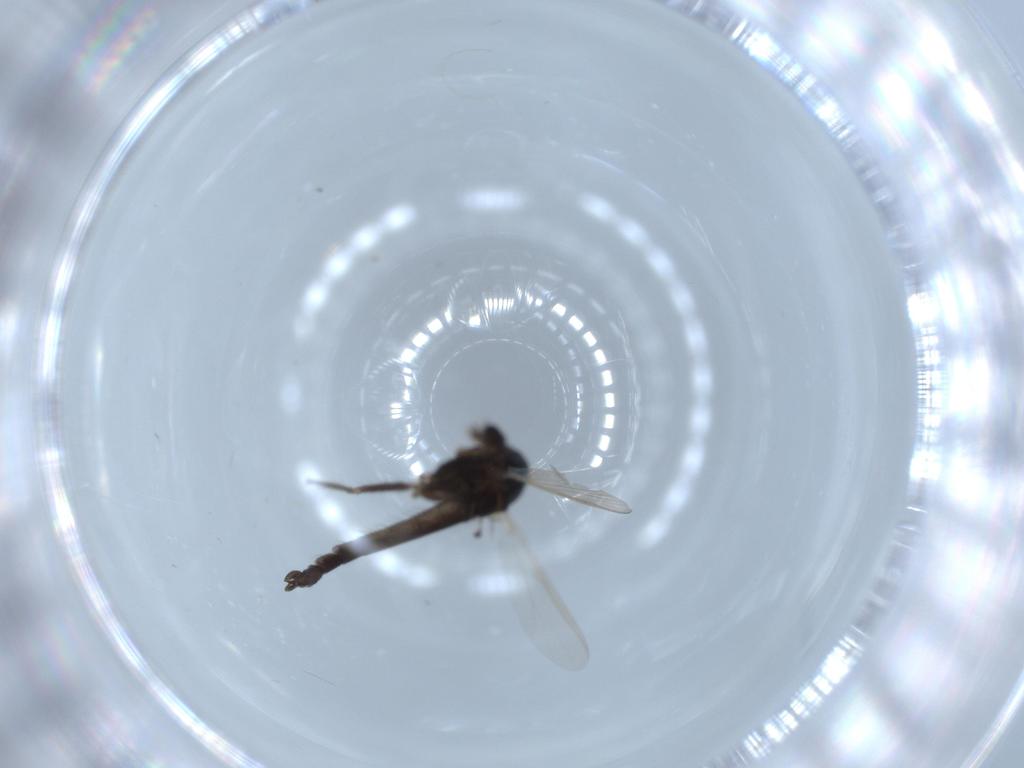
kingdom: Animalia
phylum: Arthropoda
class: Insecta
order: Diptera
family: Chironomidae
